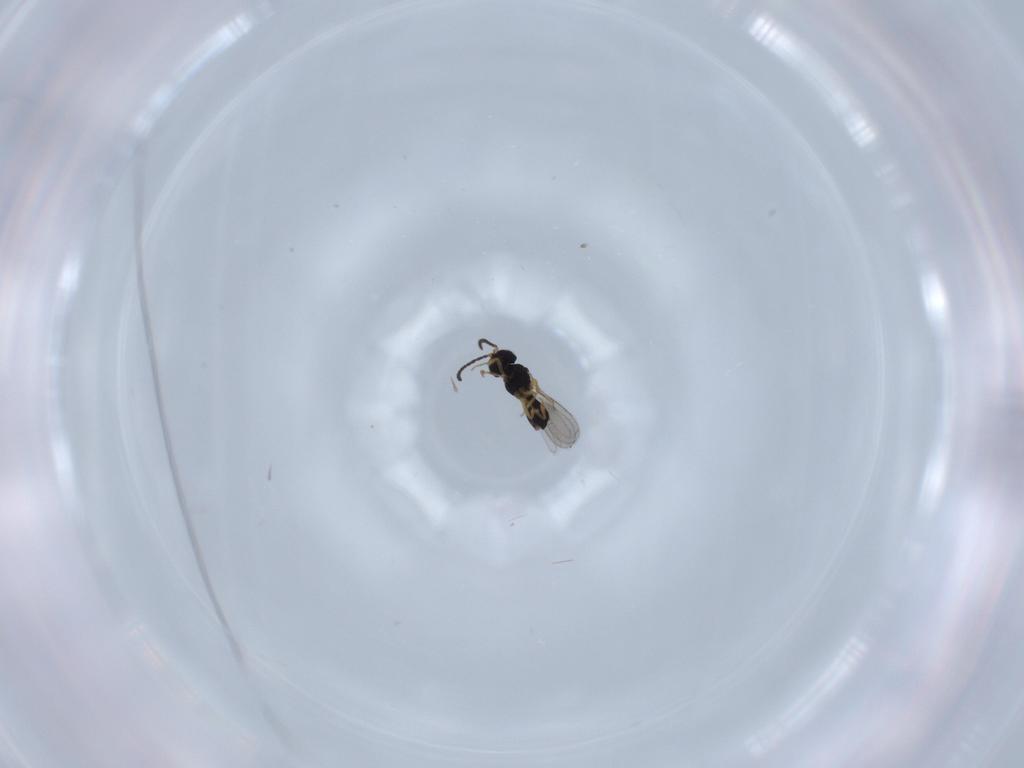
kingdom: Animalia
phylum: Arthropoda
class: Insecta
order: Hymenoptera
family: Scelionidae
